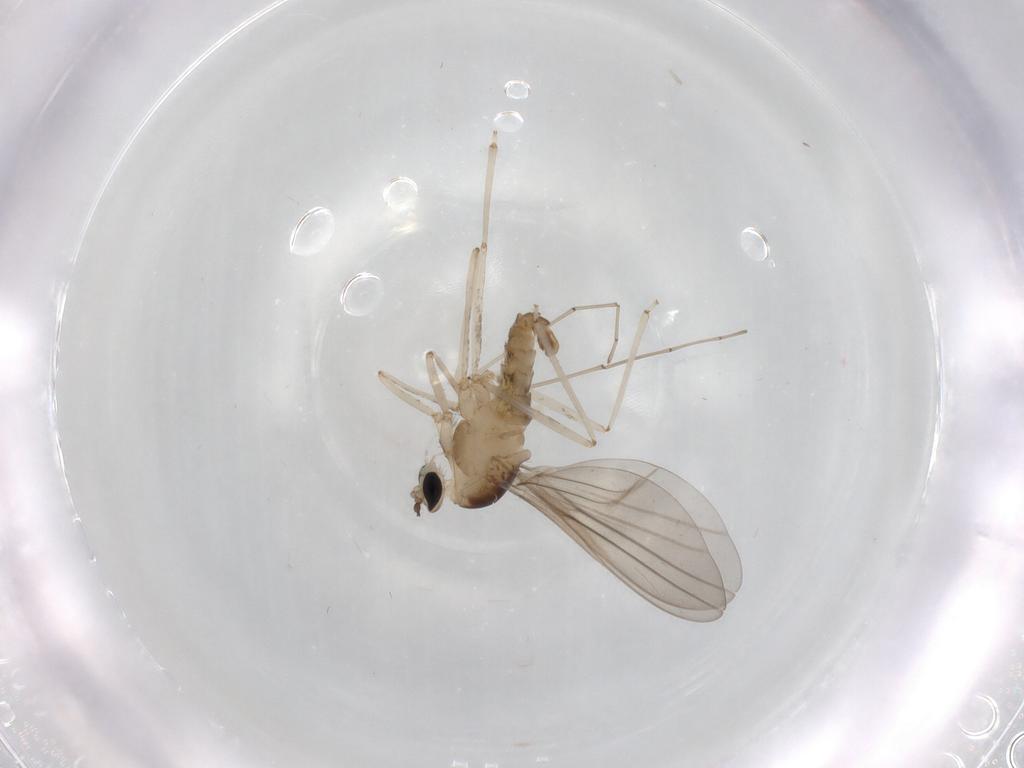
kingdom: Animalia
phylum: Arthropoda
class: Insecta
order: Diptera
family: Cecidomyiidae
